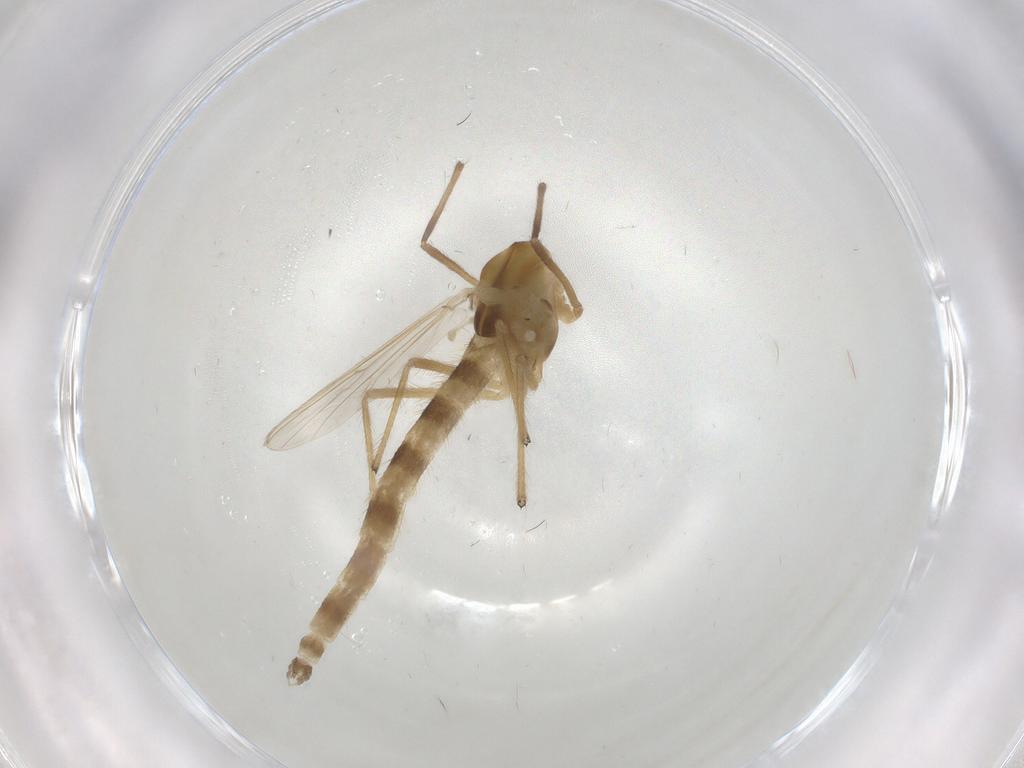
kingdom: Animalia
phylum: Arthropoda
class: Insecta
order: Diptera
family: Chironomidae
